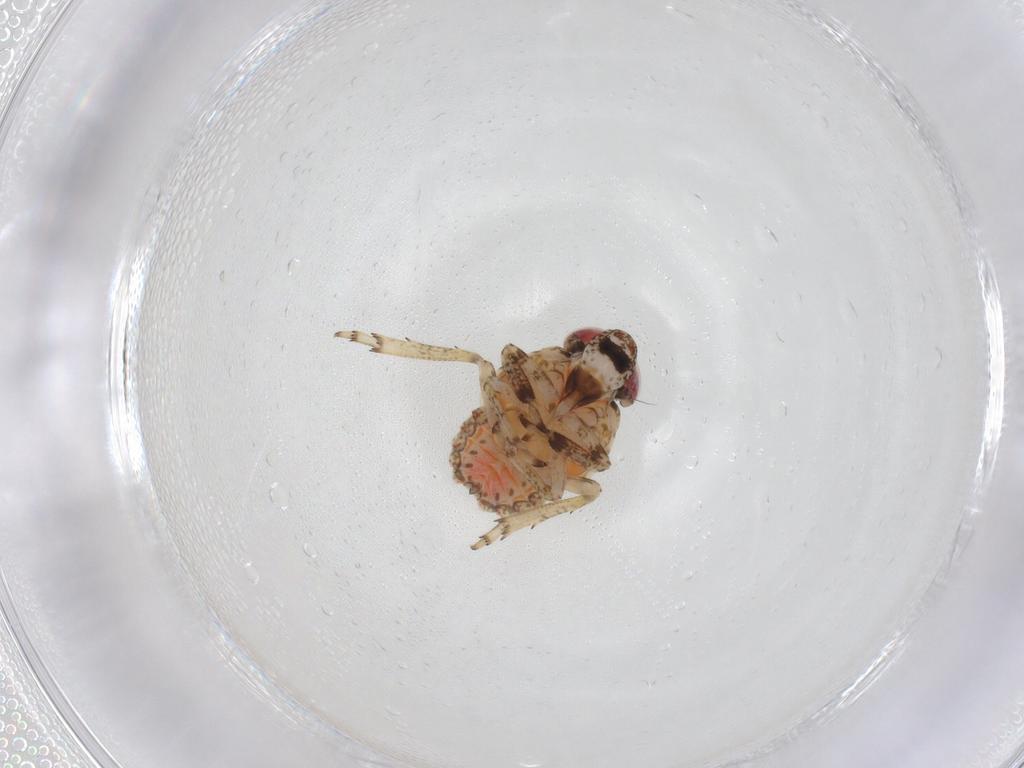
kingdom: Animalia
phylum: Arthropoda
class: Insecta
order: Hemiptera
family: Issidae
